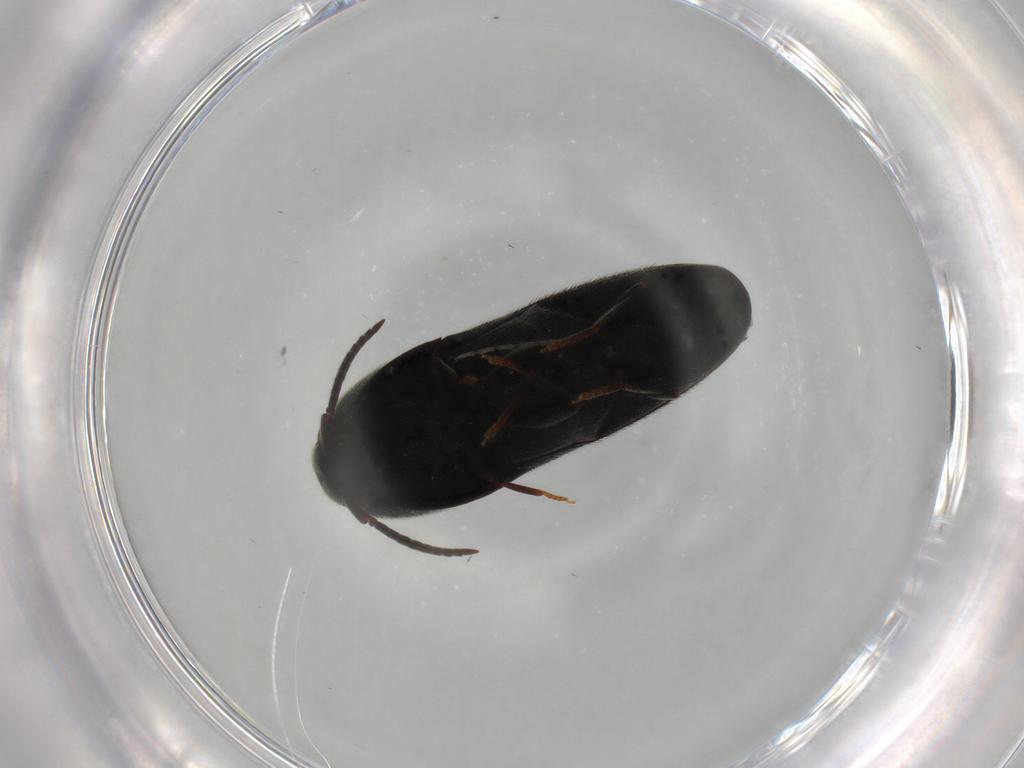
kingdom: Animalia
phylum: Arthropoda
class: Insecta
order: Coleoptera
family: Eucnemidae
